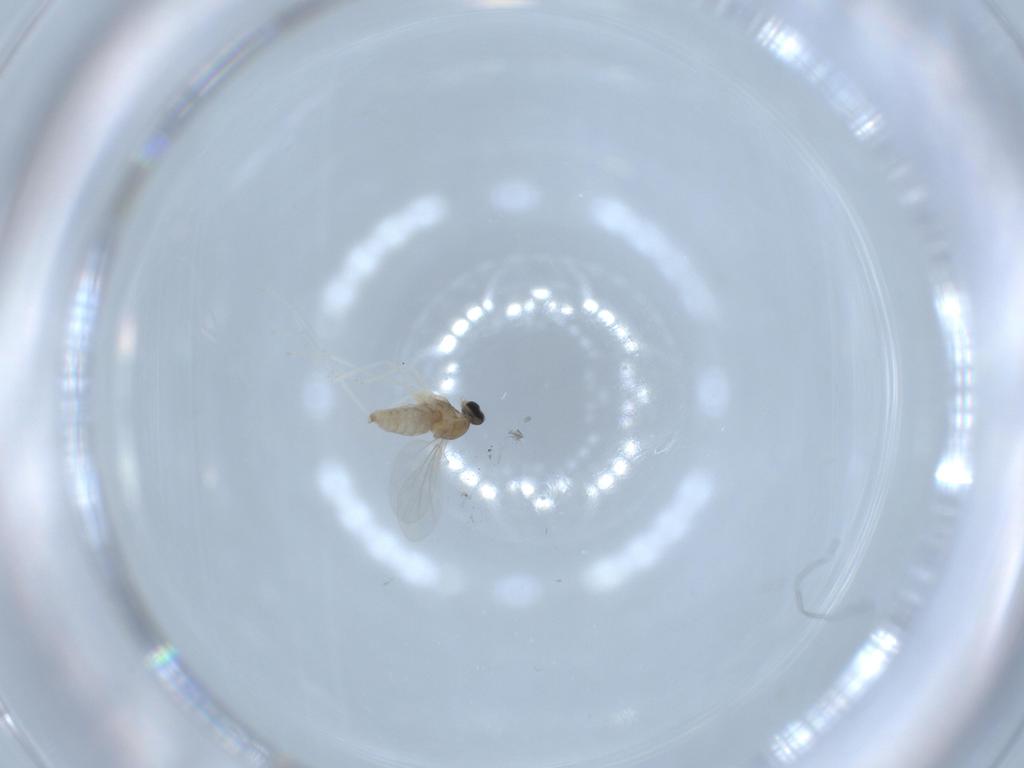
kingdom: Animalia
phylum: Arthropoda
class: Insecta
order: Diptera
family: Cecidomyiidae
